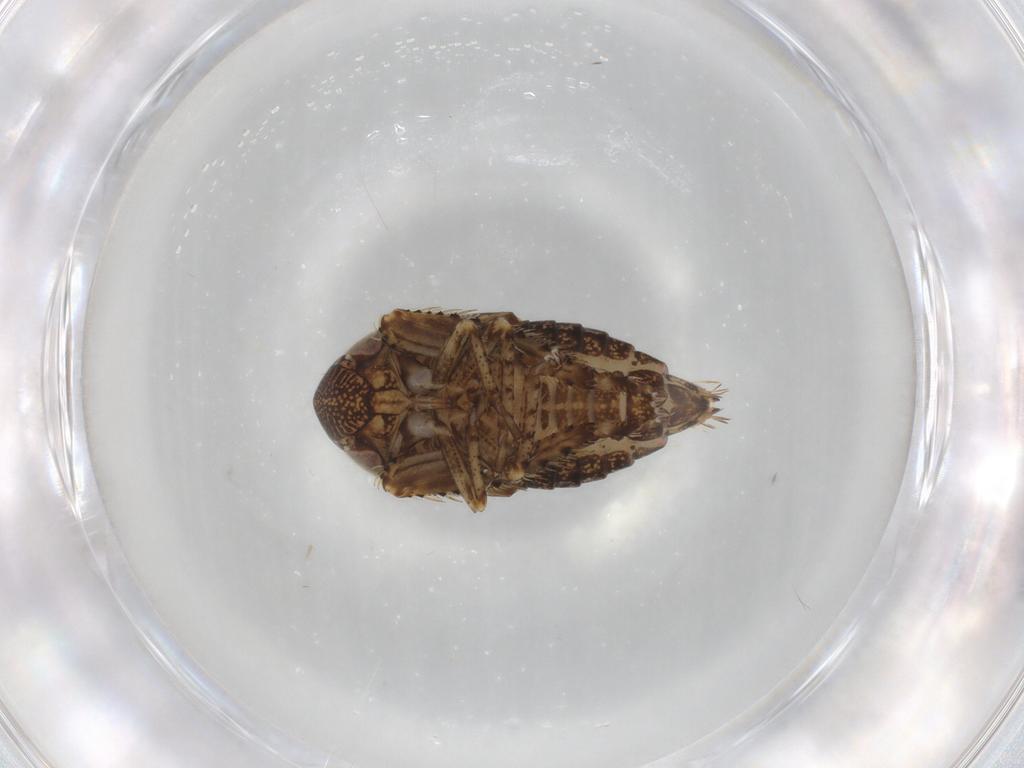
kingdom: Animalia
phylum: Arthropoda
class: Insecta
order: Hemiptera
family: Cicadellidae
